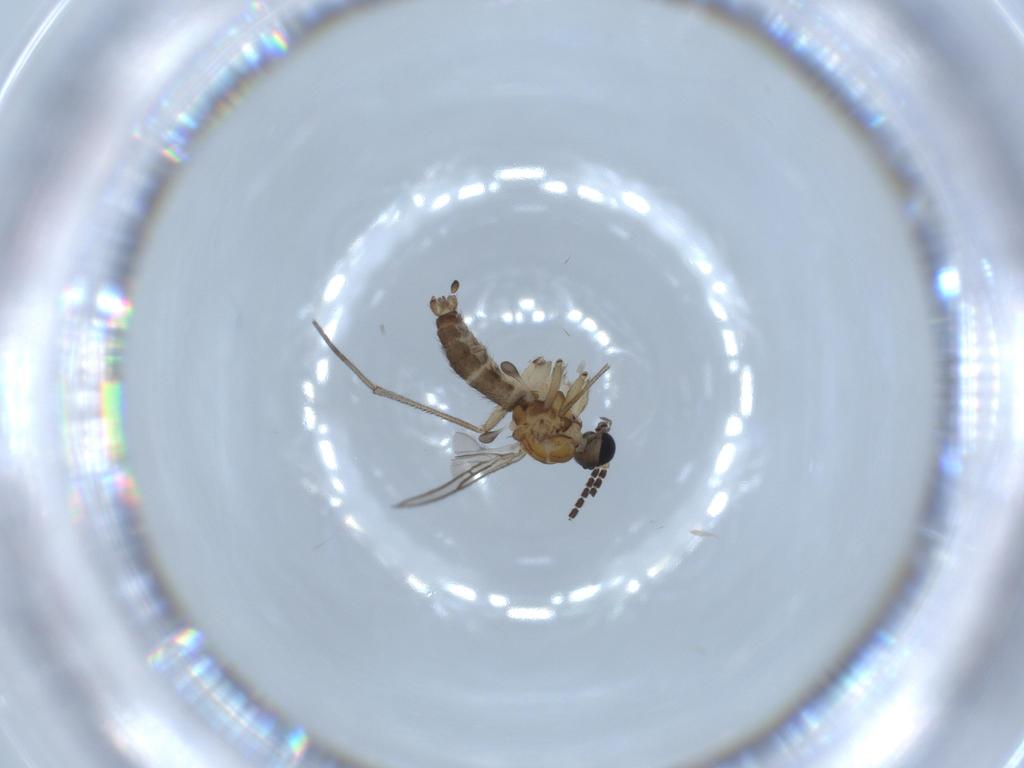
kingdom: Animalia
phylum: Arthropoda
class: Insecta
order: Diptera
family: Sciaridae
